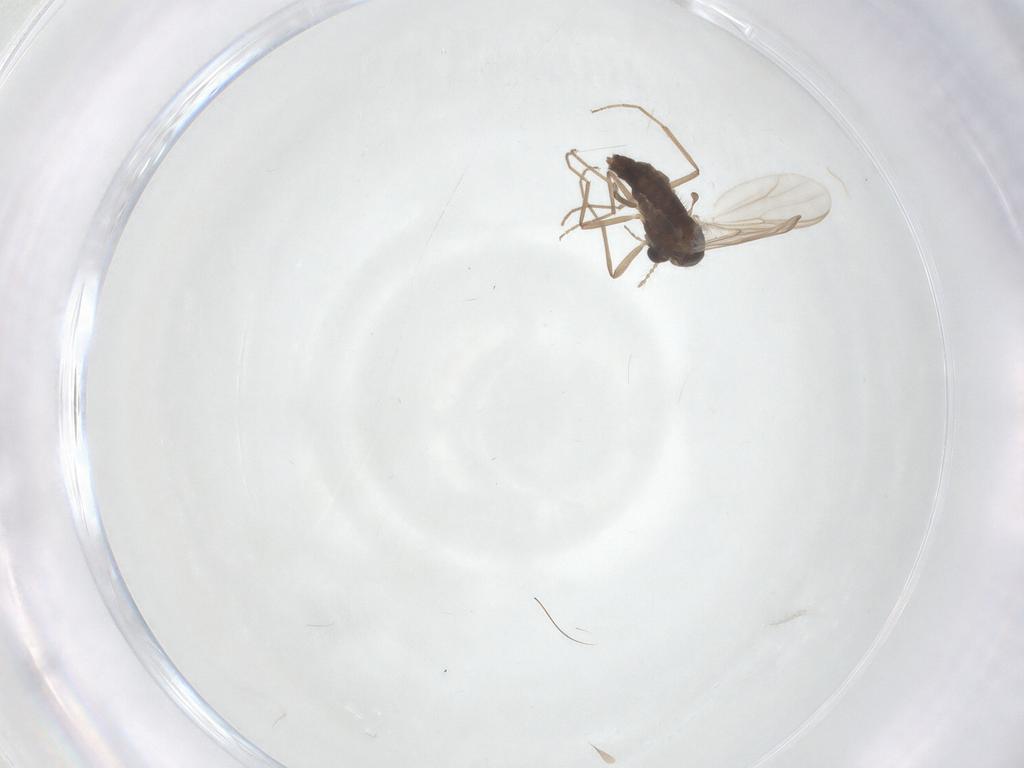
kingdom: Animalia
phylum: Arthropoda
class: Insecta
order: Diptera
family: Chironomidae
